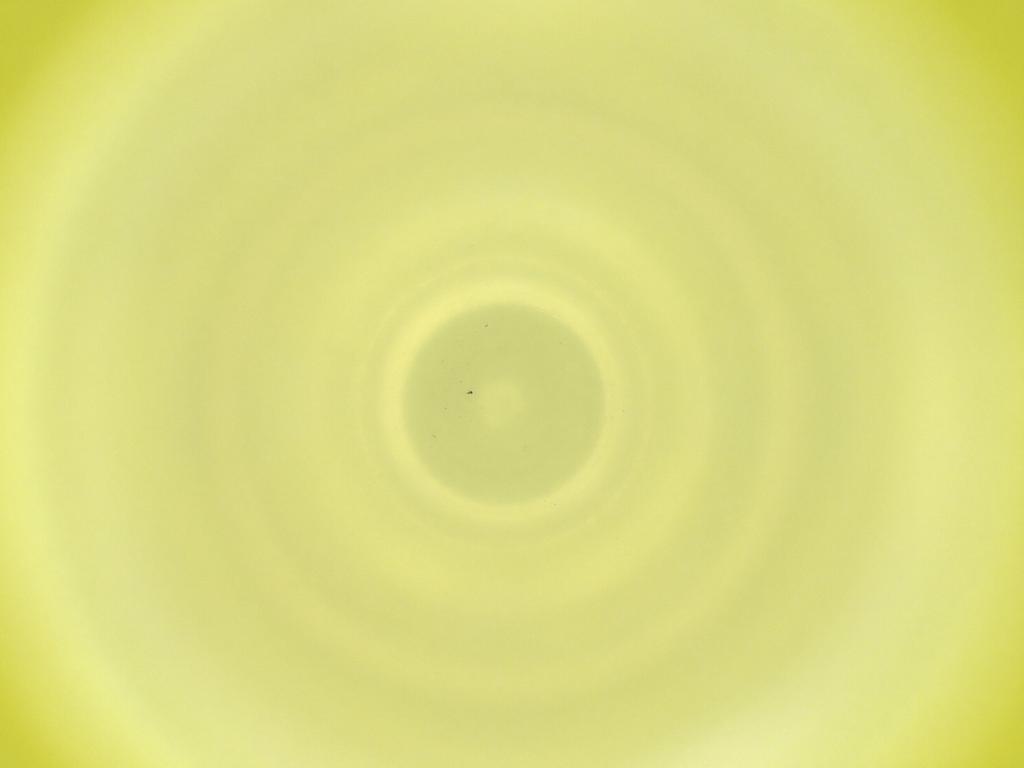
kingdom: Animalia
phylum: Arthropoda
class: Insecta
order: Diptera
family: Cecidomyiidae
